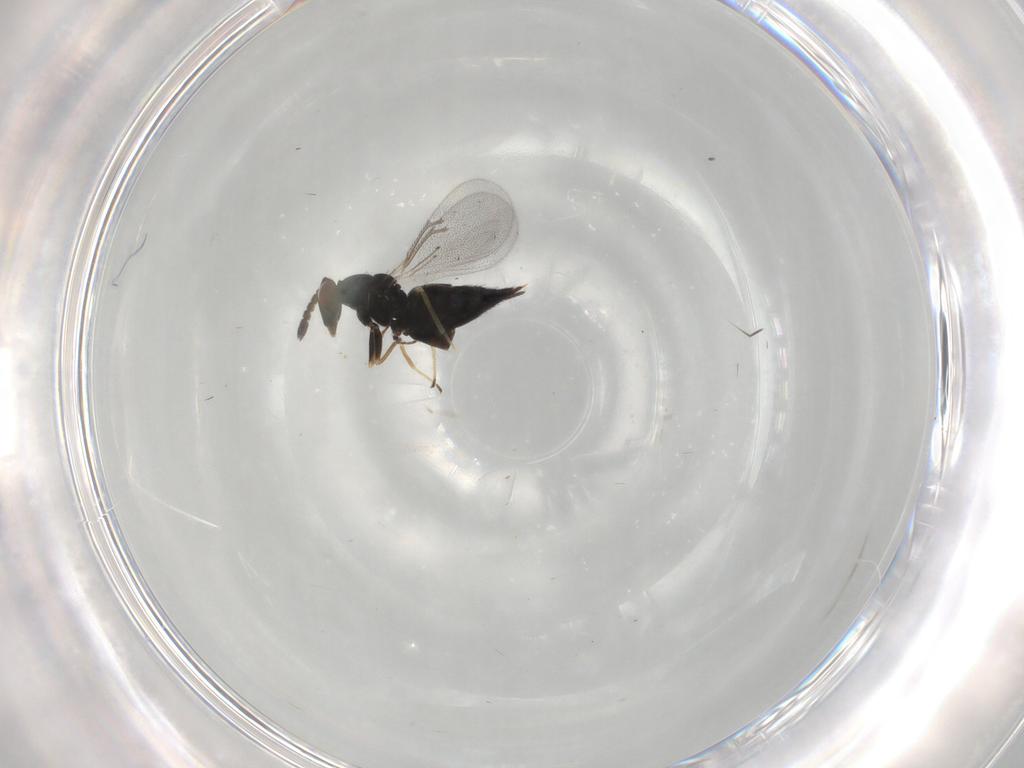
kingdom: Animalia
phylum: Arthropoda
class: Insecta
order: Hymenoptera
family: Eulophidae
